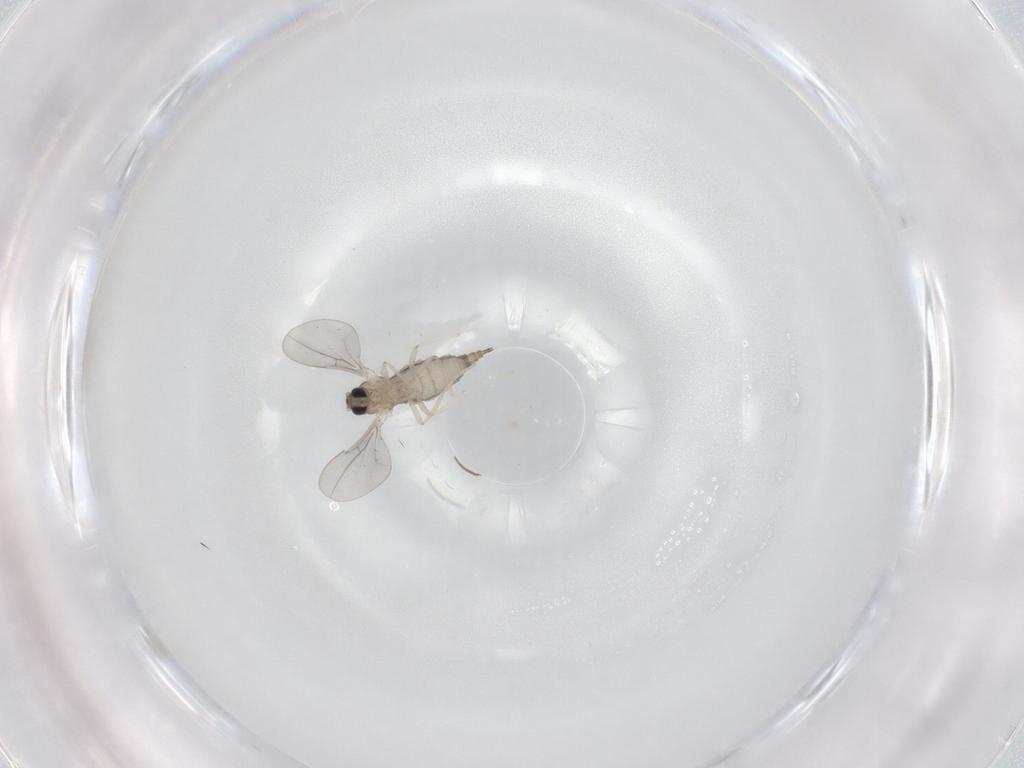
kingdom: Animalia
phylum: Arthropoda
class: Insecta
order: Diptera
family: Cecidomyiidae
